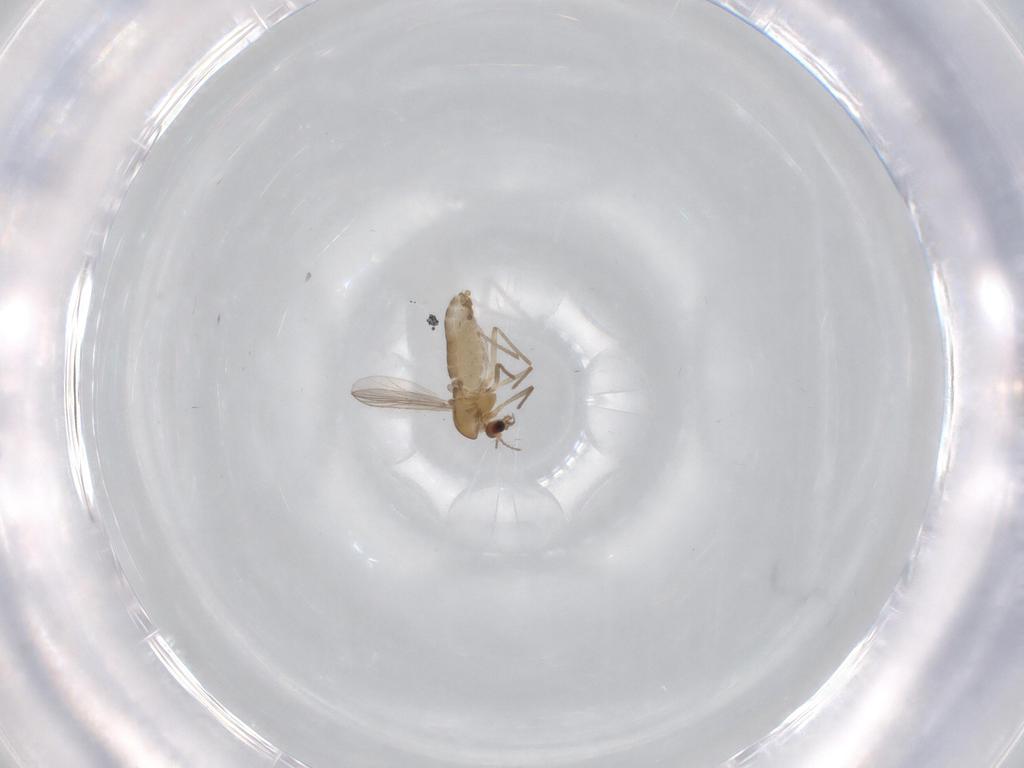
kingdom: Animalia
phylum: Arthropoda
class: Insecta
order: Diptera
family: Chironomidae
